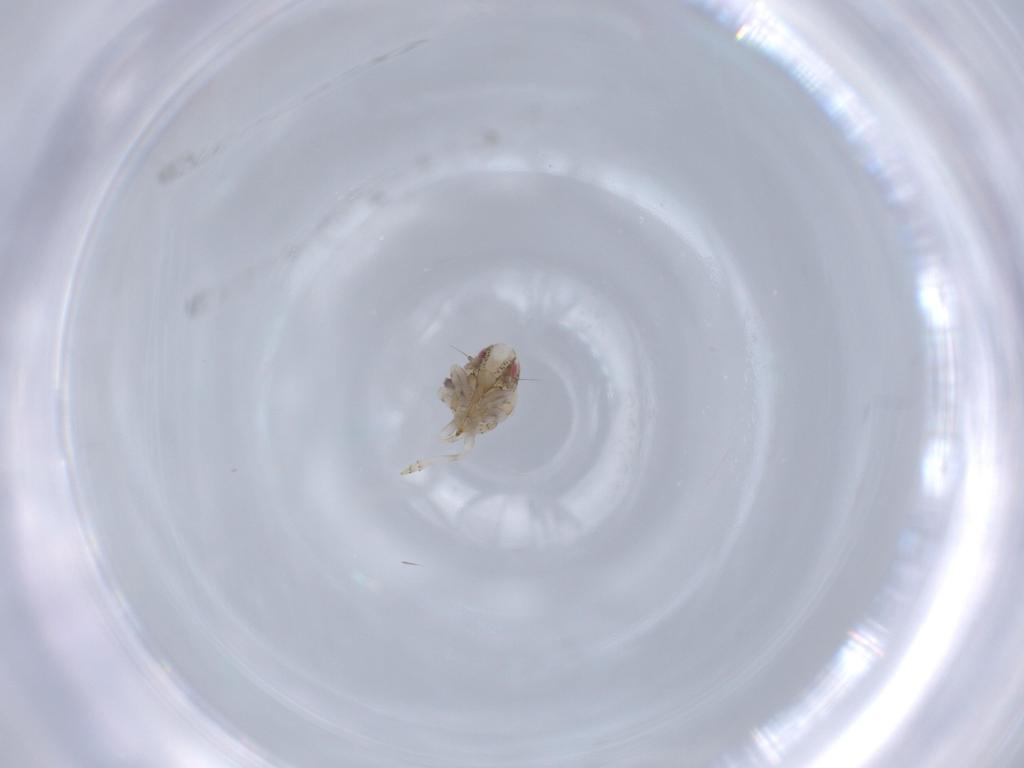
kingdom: Animalia
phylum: Arthropoda
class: Insecta
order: Hemiptera
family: Acanaloniidae
